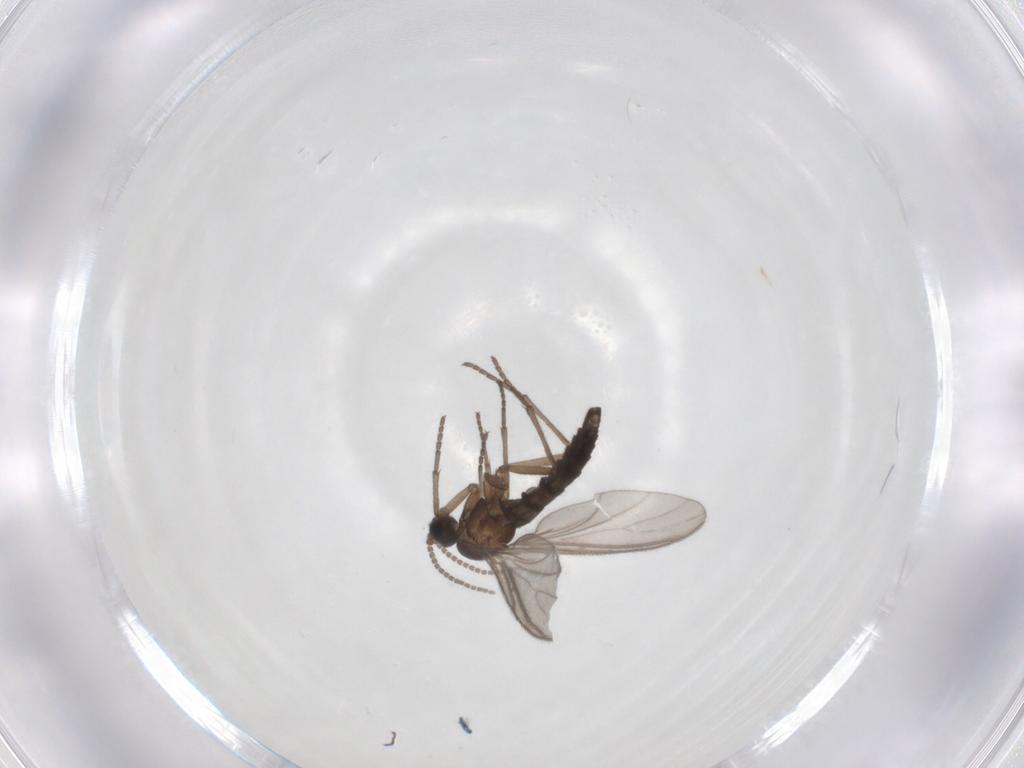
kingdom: Animalia
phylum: Arthropoda
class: Insecta
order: Diptera
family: Sciaridae
